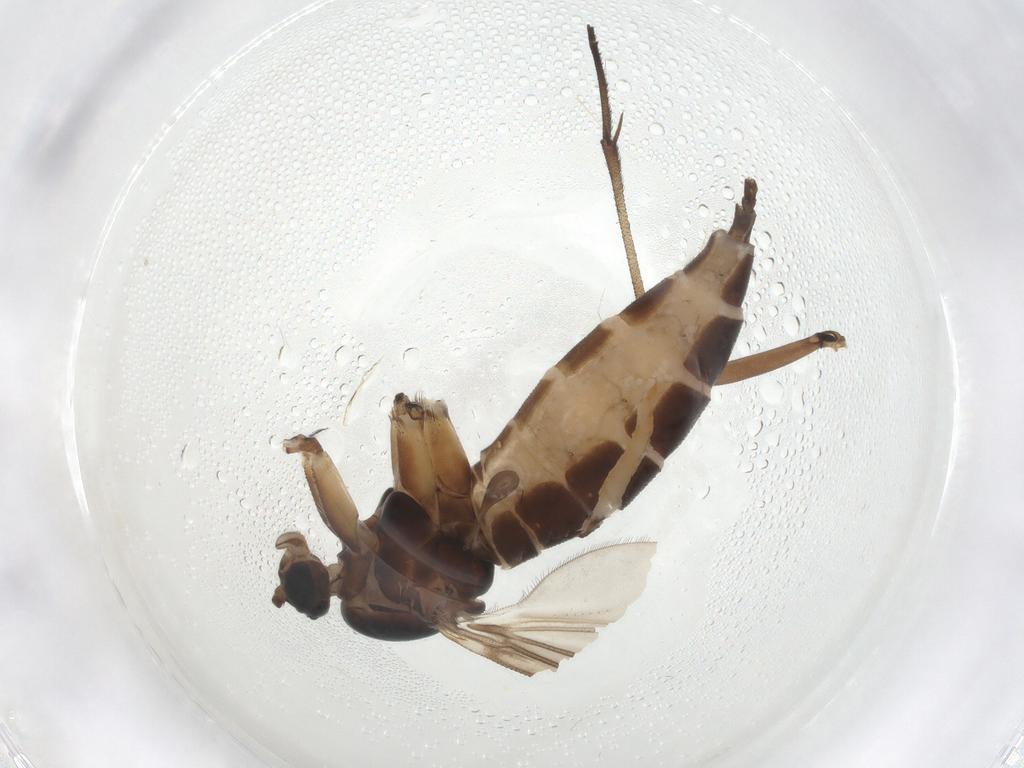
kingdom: Animalia
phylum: Arthropoda
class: Insecta
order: Diptera
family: Sciaridae
